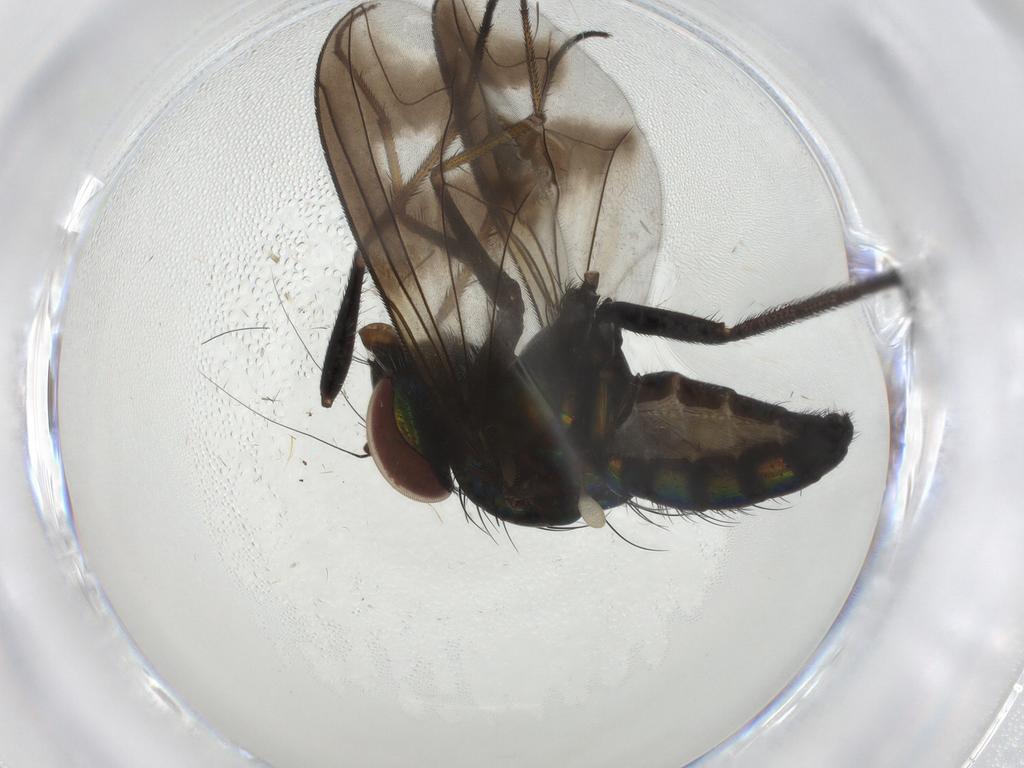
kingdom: Animalia
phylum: Arthropoda
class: Insecta
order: Diptera
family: Dolichopodidae
